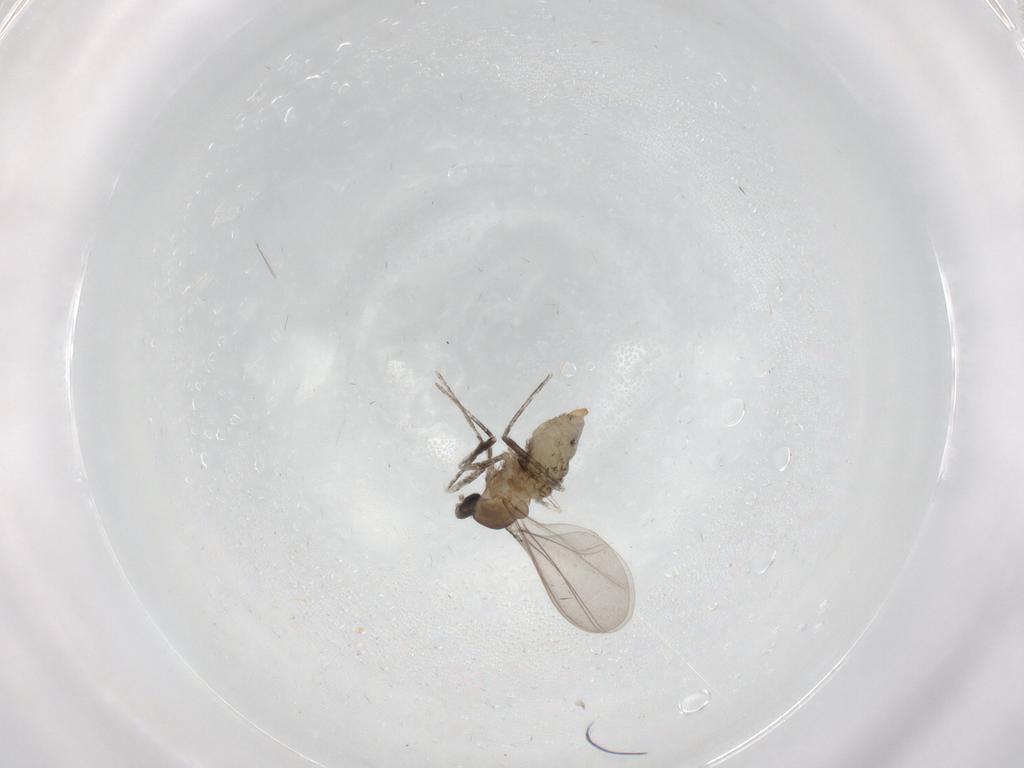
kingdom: Animalia
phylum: Arthropoda
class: Insecta
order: Diptera
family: Cecidomyiidae
